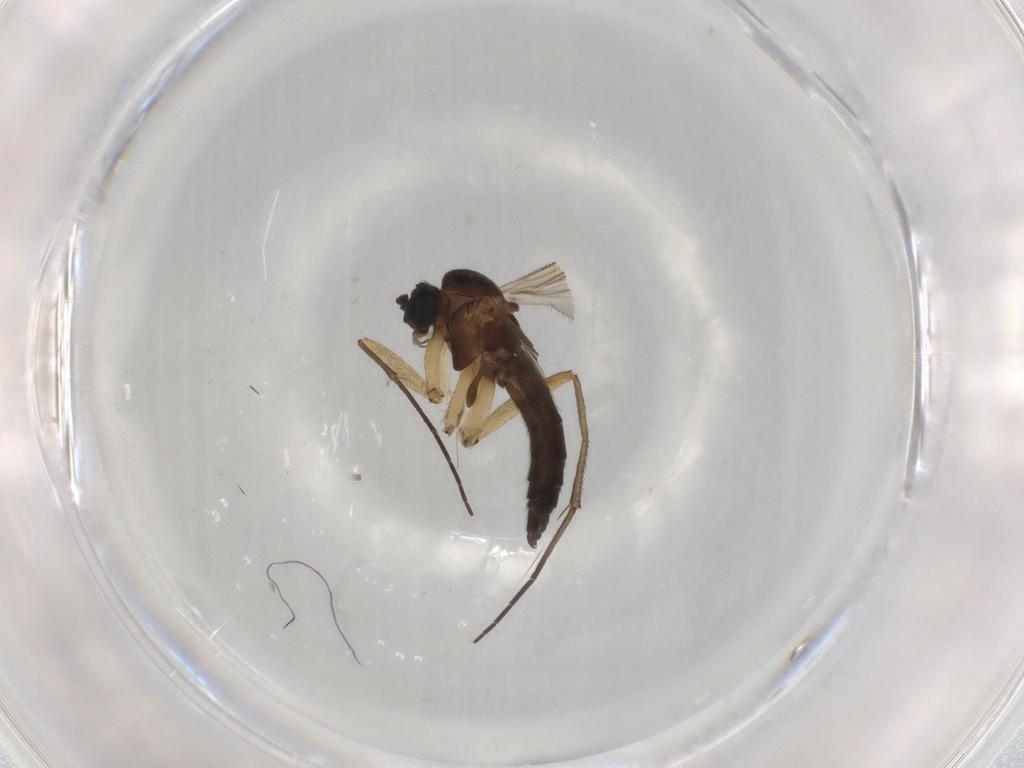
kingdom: Animalia
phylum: Arthropoda
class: Insecta
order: Diptera
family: Sciaridae
